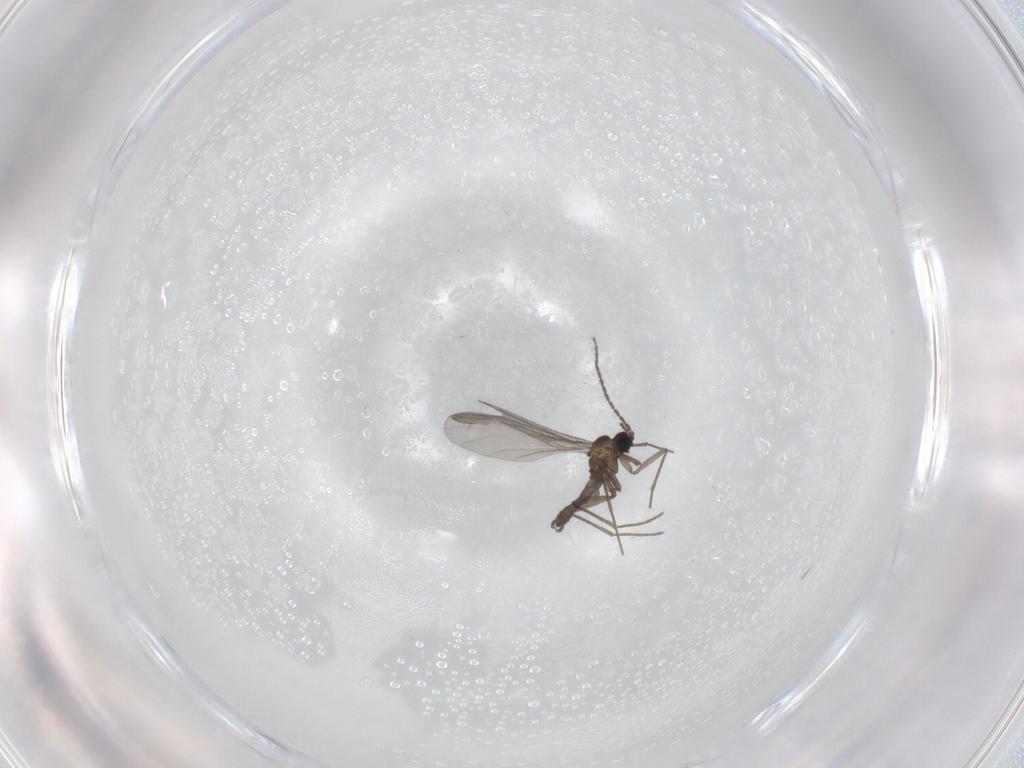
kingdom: Animalia
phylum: Arthropoda
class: Insecta
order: Diptera
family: Sciaridae
